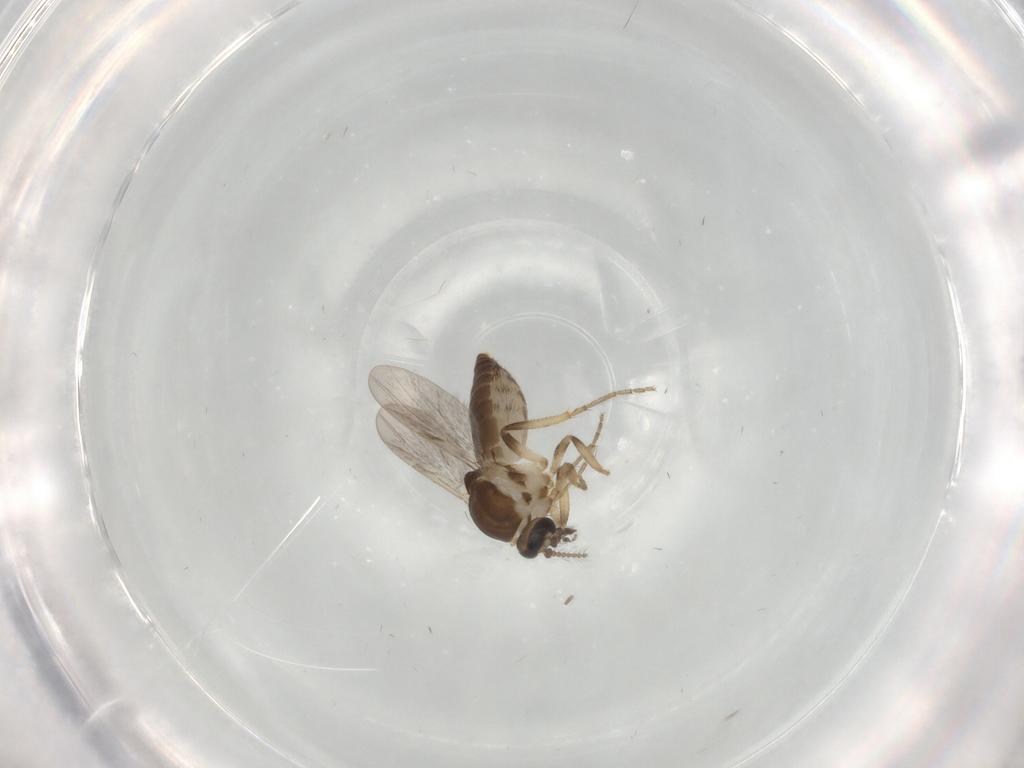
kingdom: Animalia
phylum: Arthropoda
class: Insecta
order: Diptera
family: Ceratopogonidae
